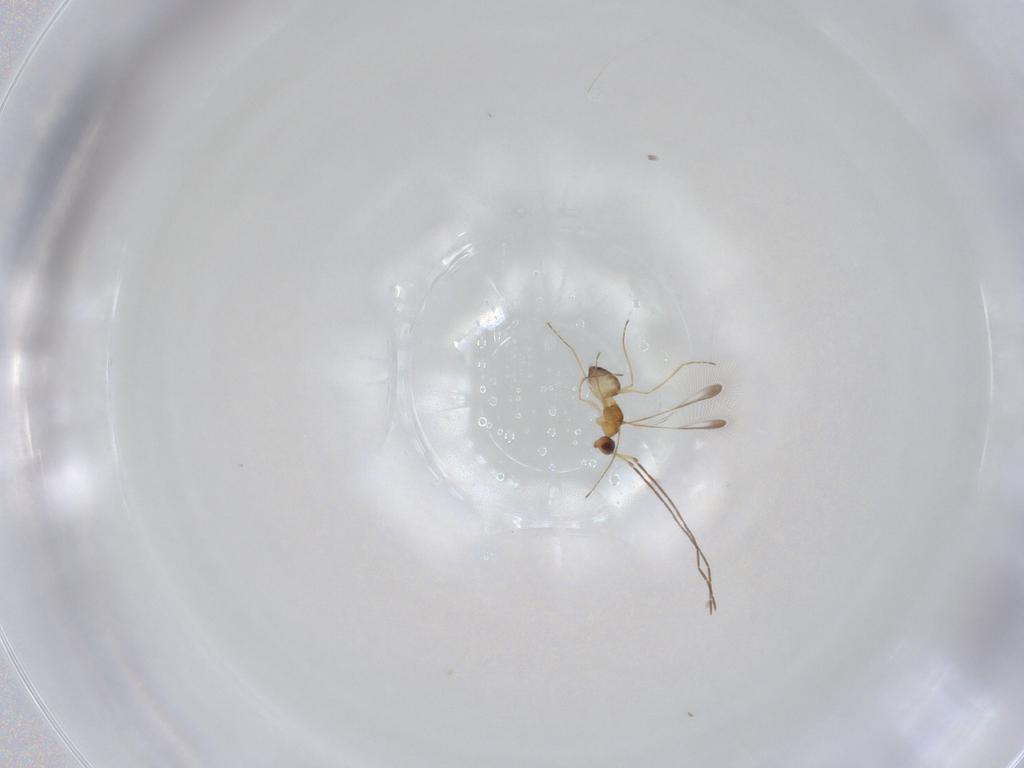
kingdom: Animalia
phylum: Arthropoda
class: Insecta
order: Hymenoptera
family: Mymaridae
